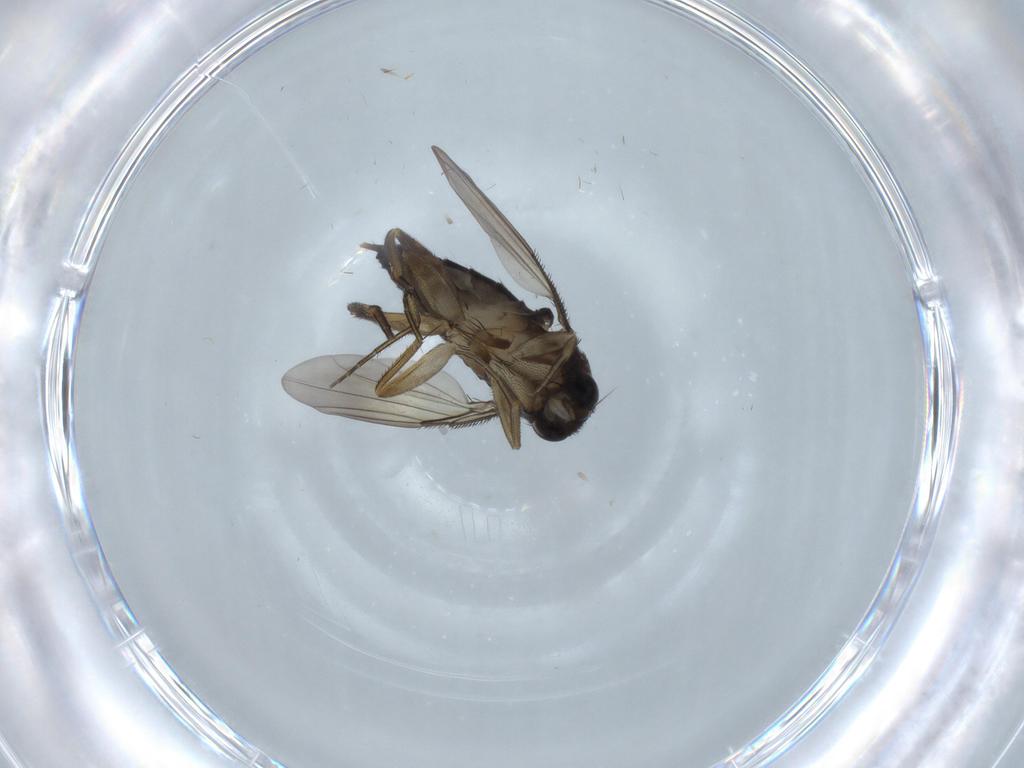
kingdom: Animalia
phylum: Arthropoda
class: Insecta
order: Diptera
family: Phoridae
